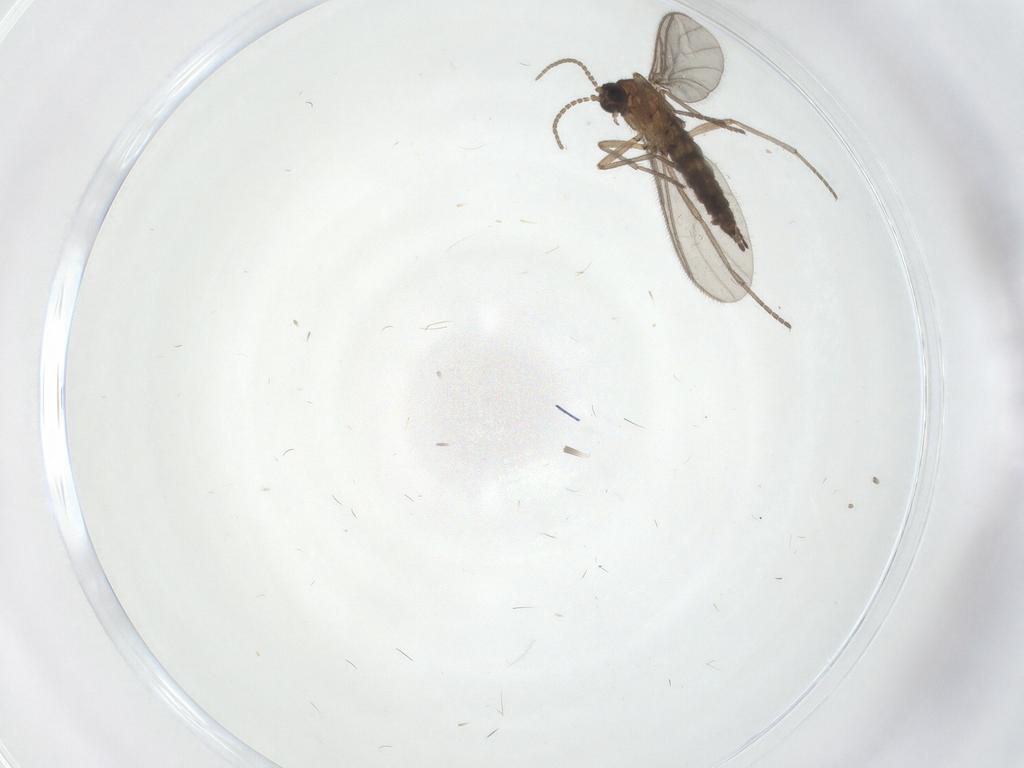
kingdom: Animalia
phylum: Arthropoda
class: Insecta
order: Diptera
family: Sciaridae
